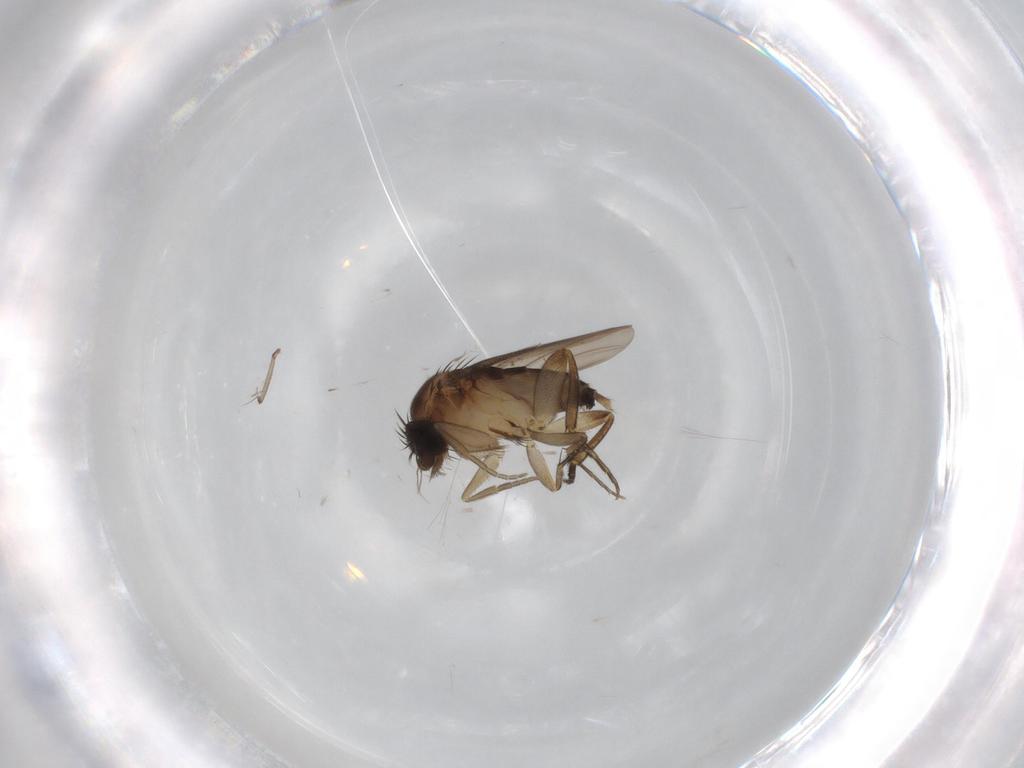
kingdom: Animalia
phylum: Arthropoda
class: Insecta
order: Diptera
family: Phoridae
